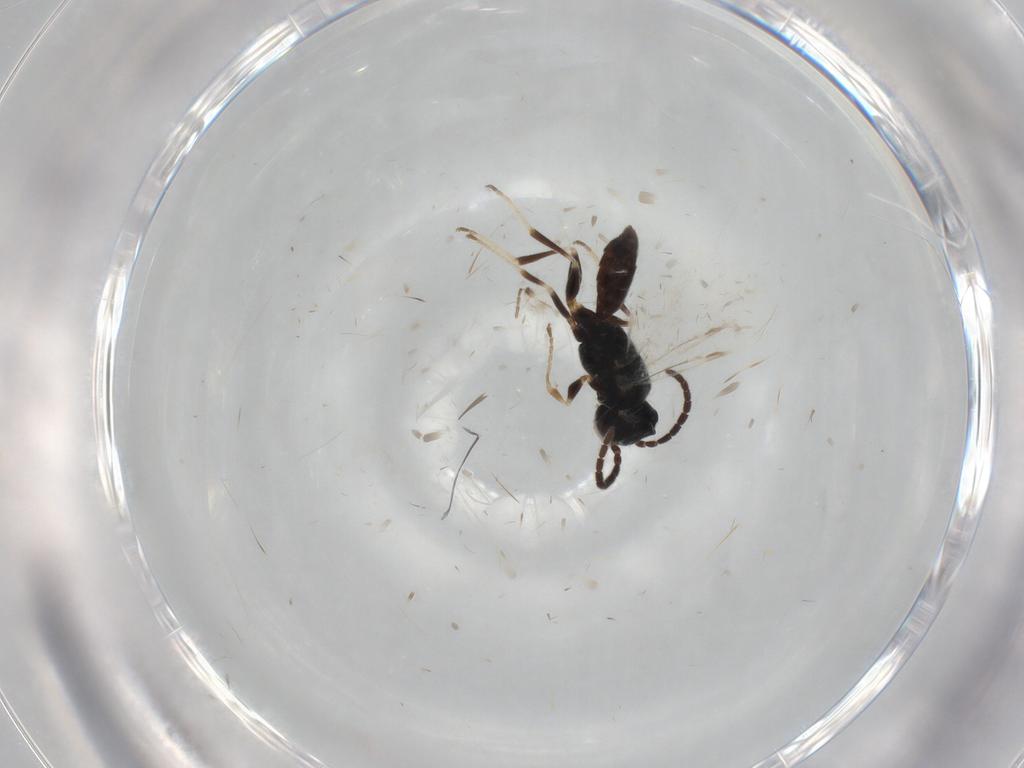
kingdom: Animalia
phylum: Arthropoda
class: Insecta
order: Hymenoptera
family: Dryinidae
